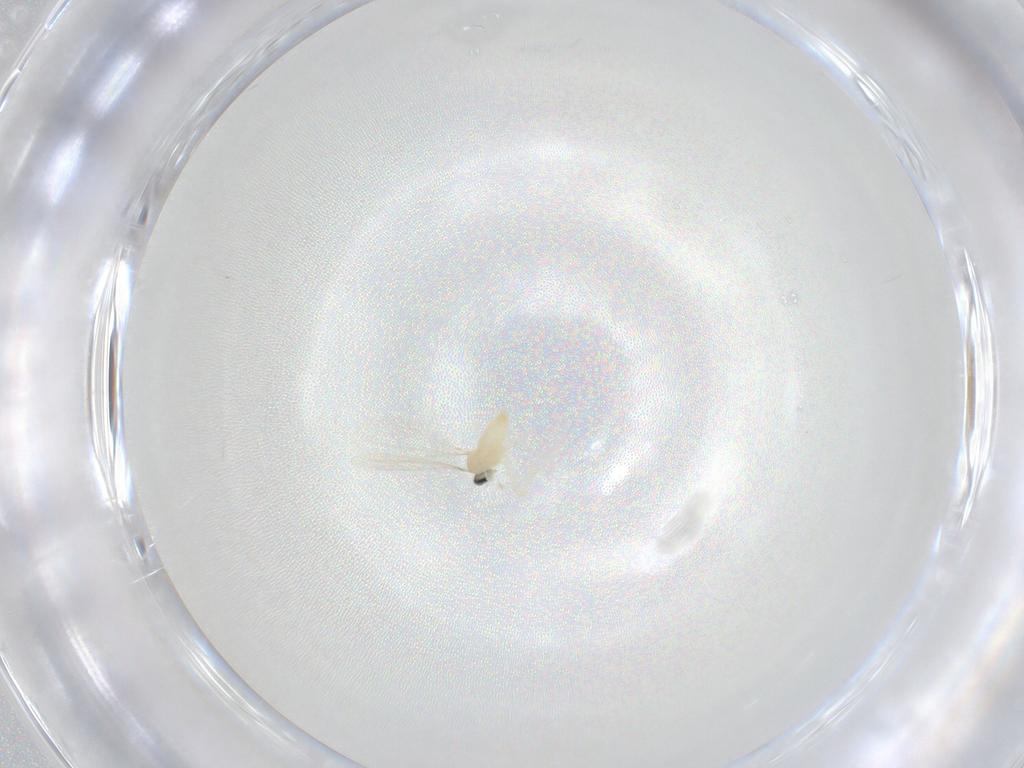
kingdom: Animalia
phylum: Arthropoda
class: Insecta
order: Diptera
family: Cecidomyiidae
